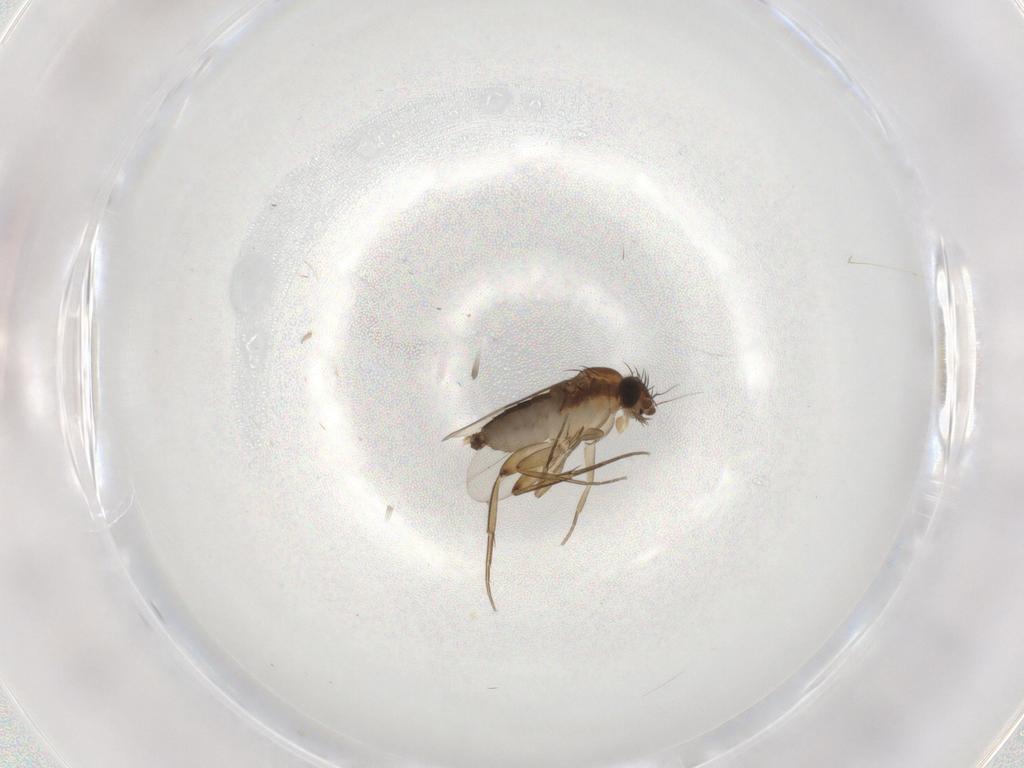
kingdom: Animalia
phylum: Arthropoda
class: Insecta
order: Diptera
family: Phoridae
